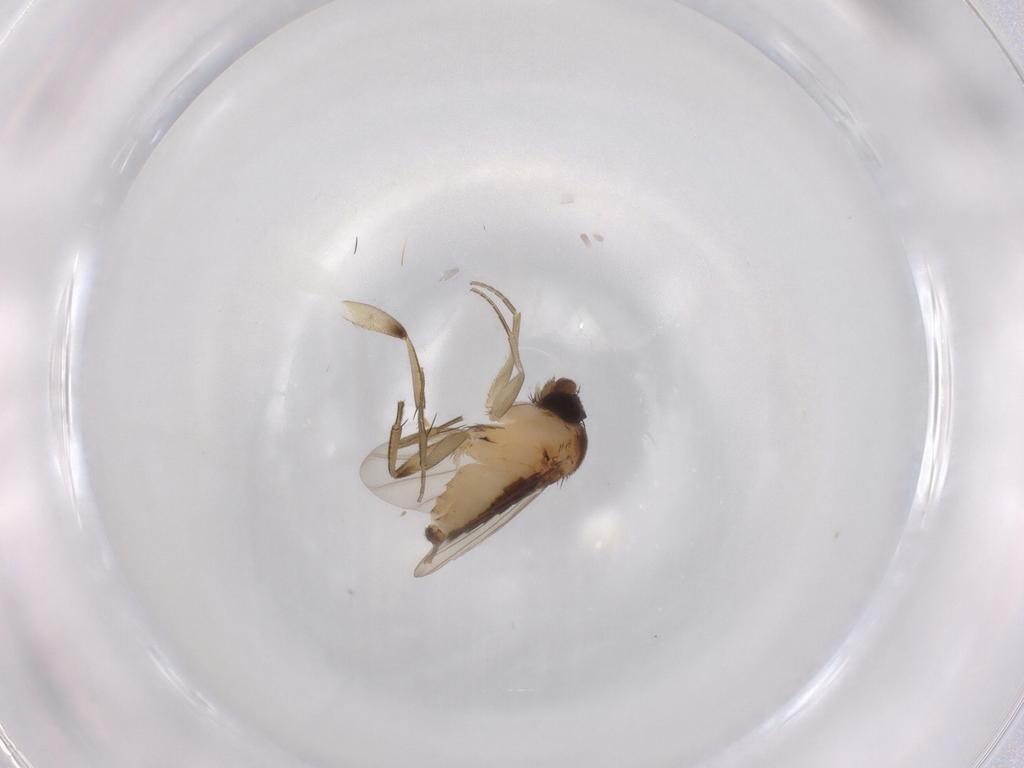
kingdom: Animalia
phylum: Arthropoda
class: Insecta
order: Diptera
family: Phoridae
